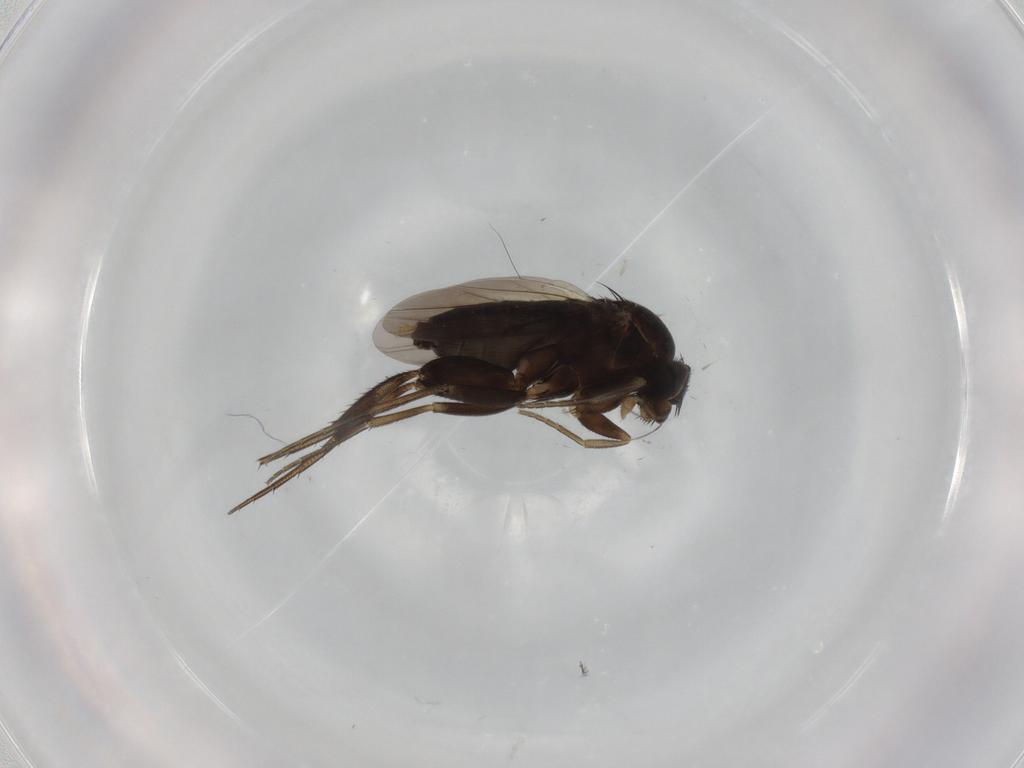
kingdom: Animalia
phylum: Arthropoda
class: Insecta
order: Diptera
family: Phoridae
